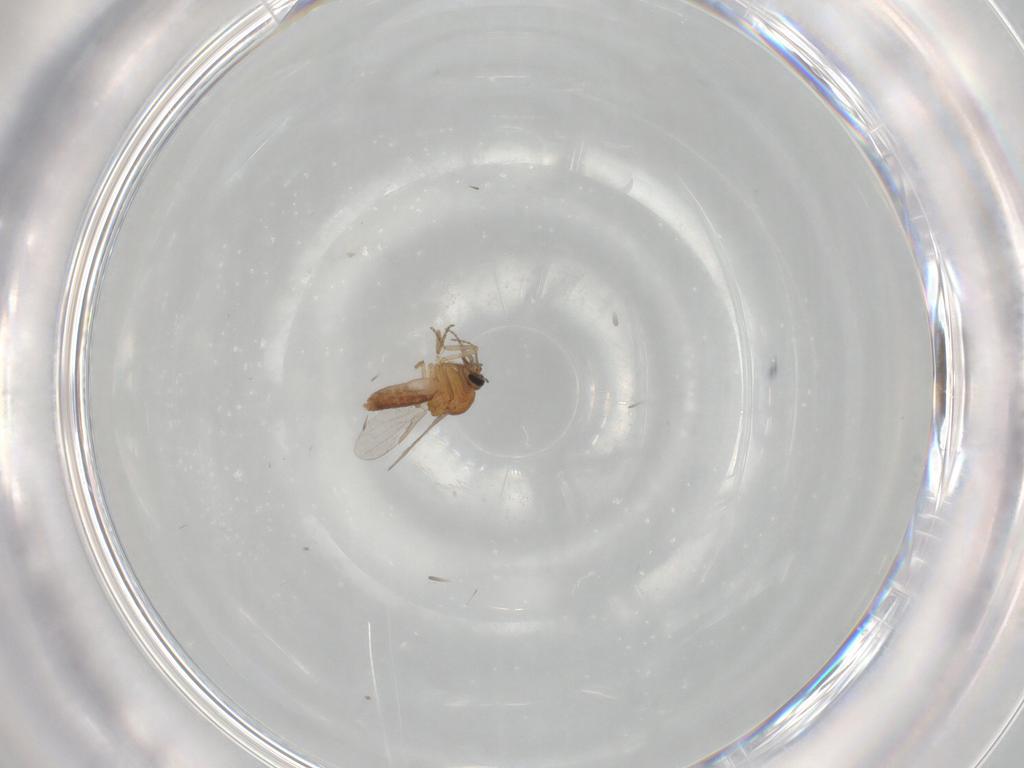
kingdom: Animalia
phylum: Arthropoda
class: Insecta
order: Diptera
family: Ceratopogonidae
